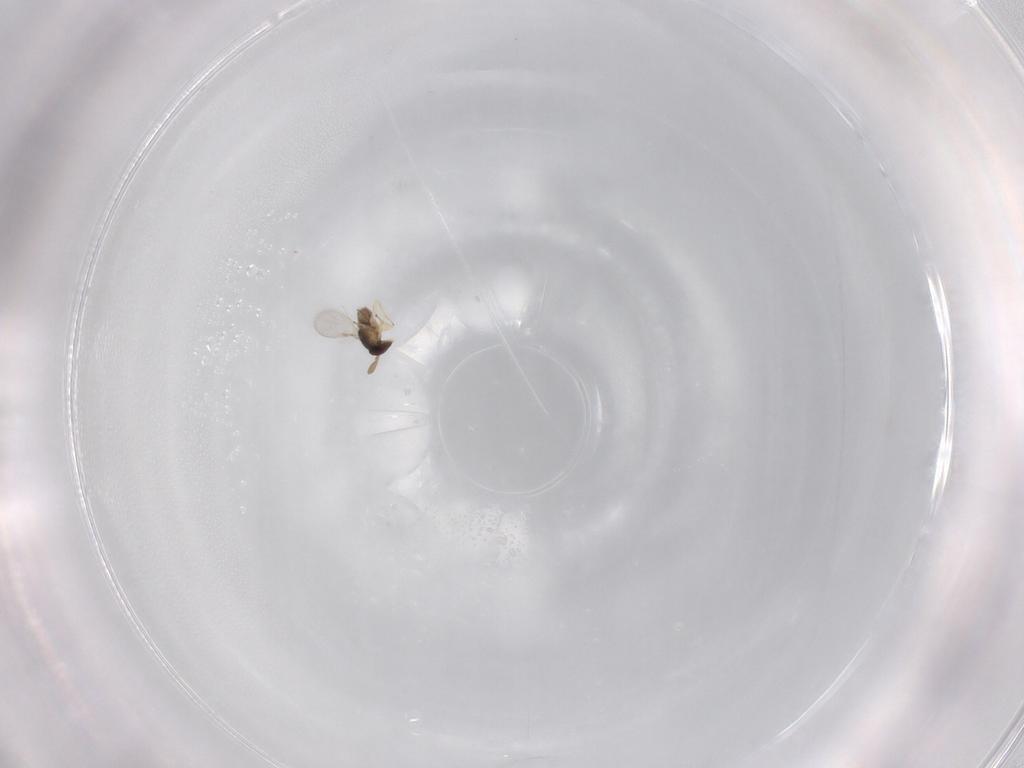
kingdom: Animalia
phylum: Arthropoda
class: Insecta
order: Hymenoptera
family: Encyrtidae
